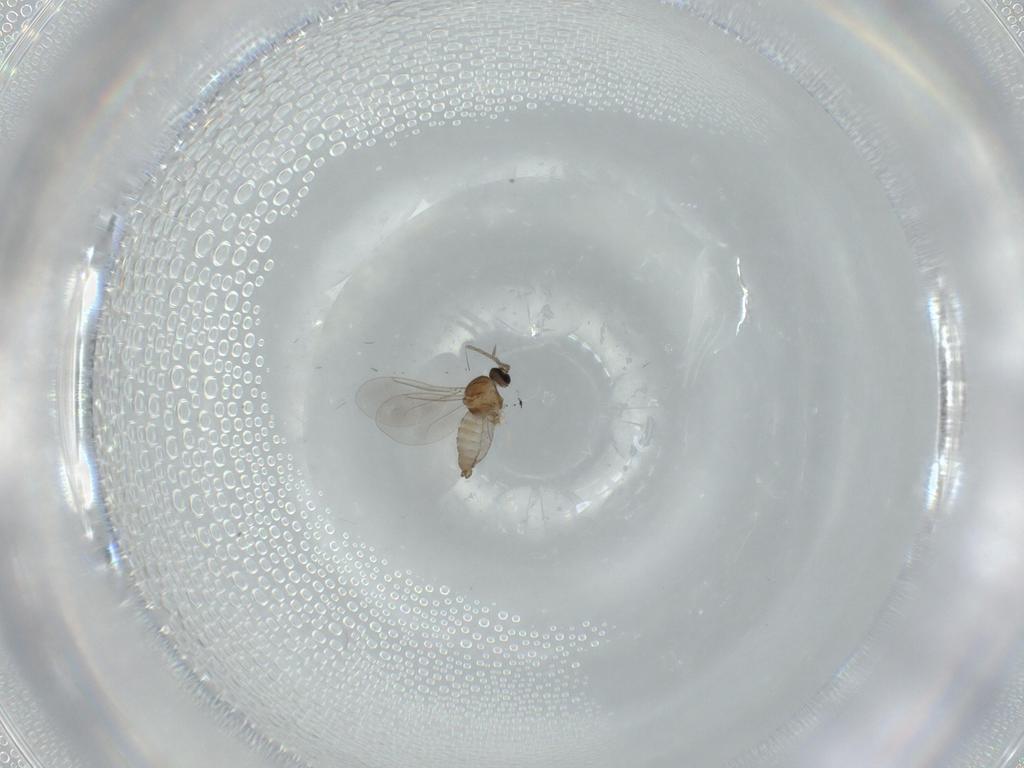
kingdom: Animalia
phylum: Arthropoda
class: Insecta
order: Diptera
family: Cecidomyiidae
